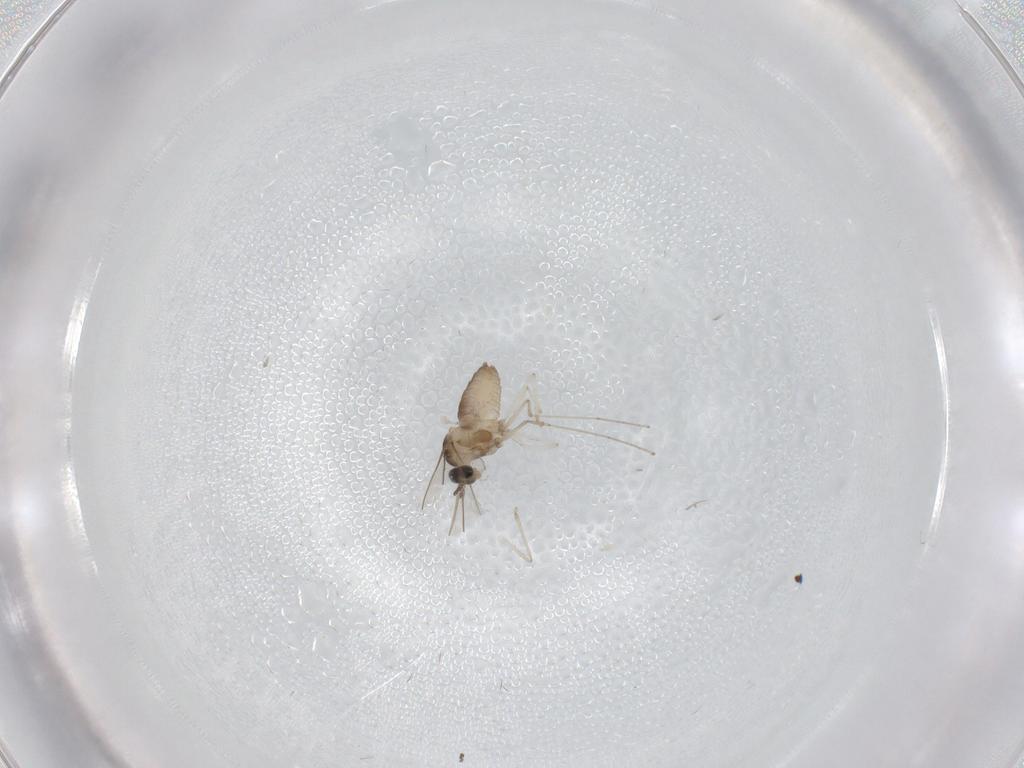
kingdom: Animalia
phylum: Arthropoda
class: Insecta
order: Diptera
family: Cecidomyiidae
